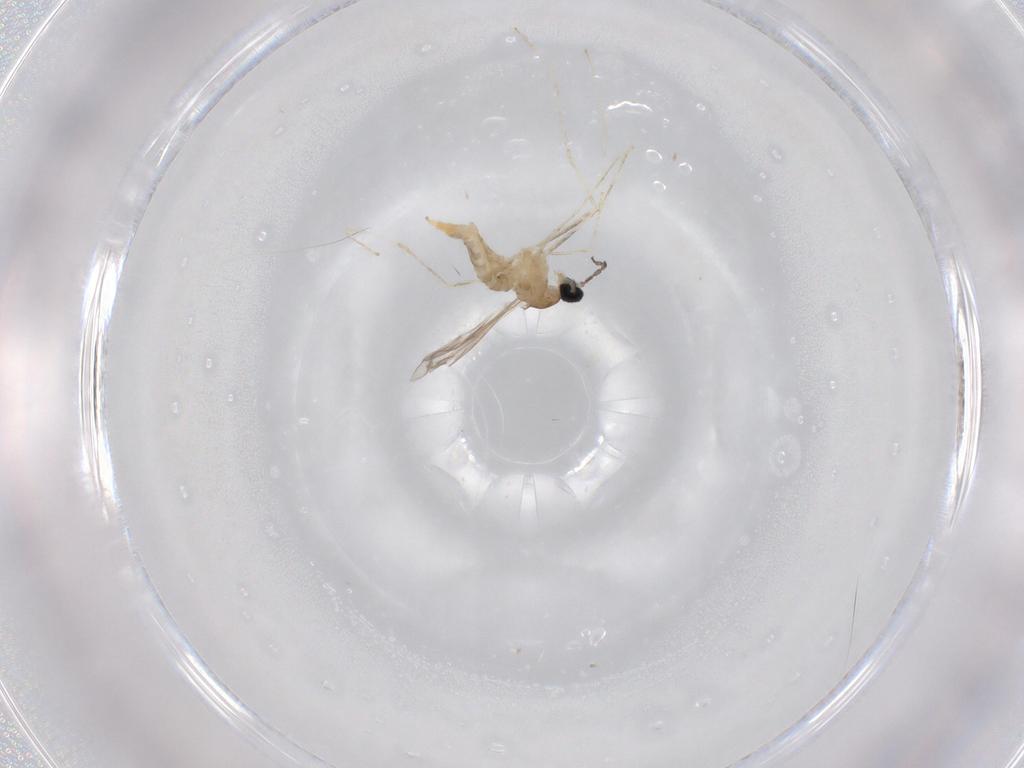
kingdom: Animalia
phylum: Arthropoda
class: Insecta
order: Diptera
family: Cecidomyiidae
